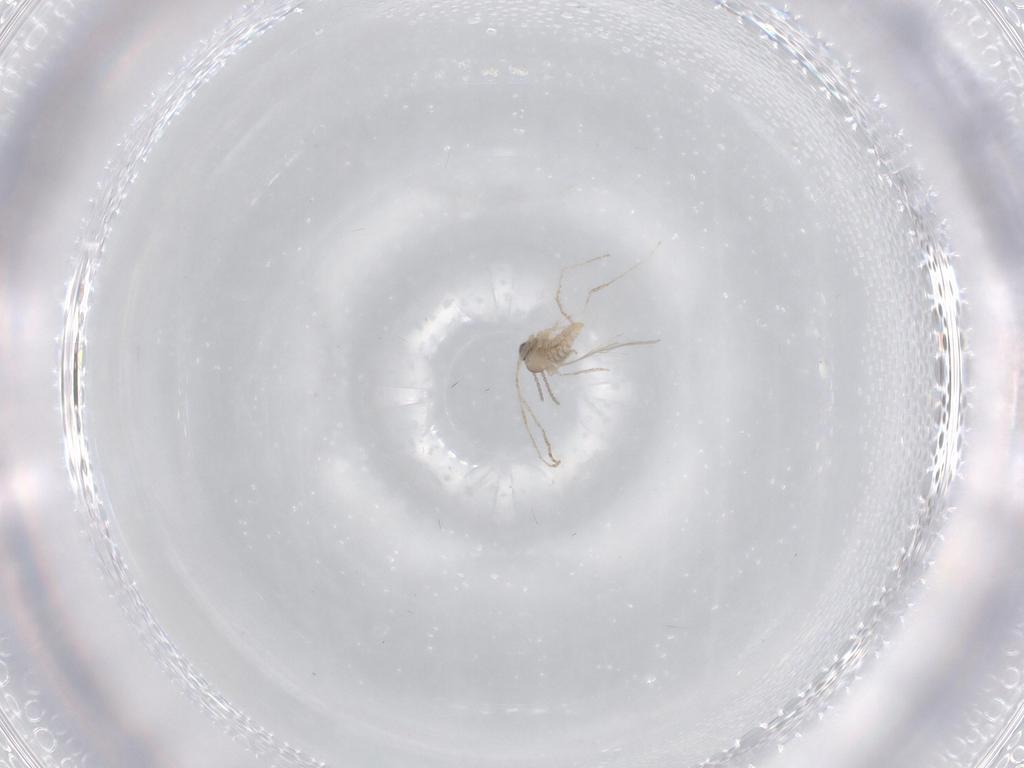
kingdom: Animalia
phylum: Arthropoda
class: Insecta
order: Diptera
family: Cecidomyiidae
